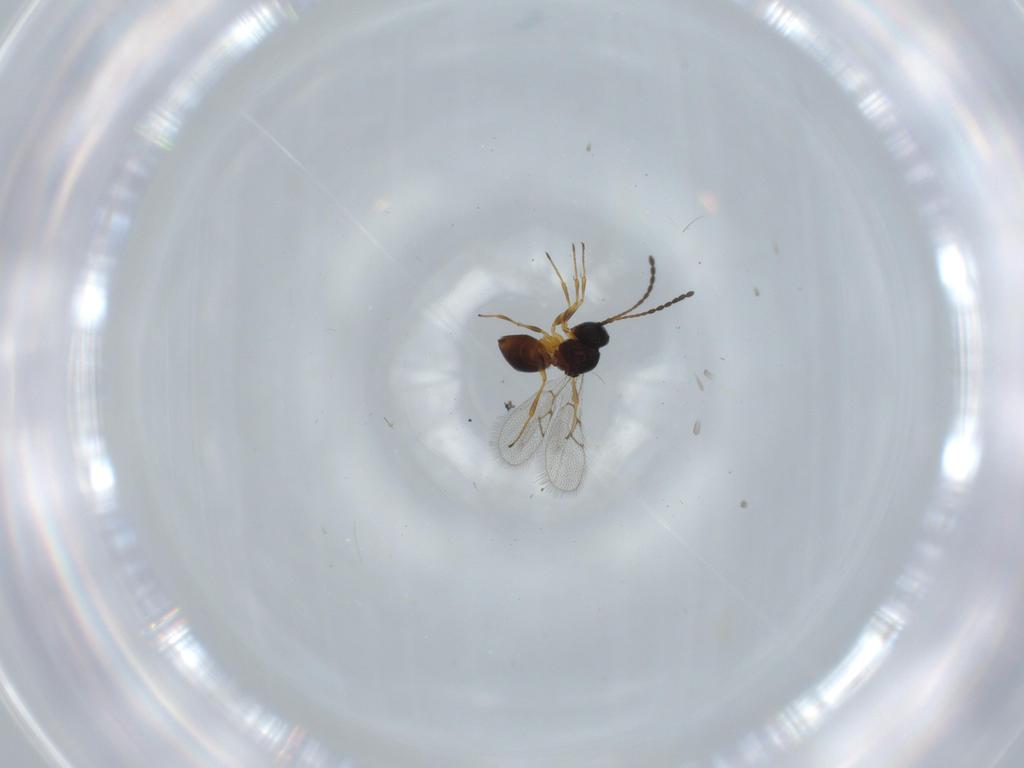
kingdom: Animalia
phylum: Arthropoda
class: Insecta
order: Hymenoptera
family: Figitidae
